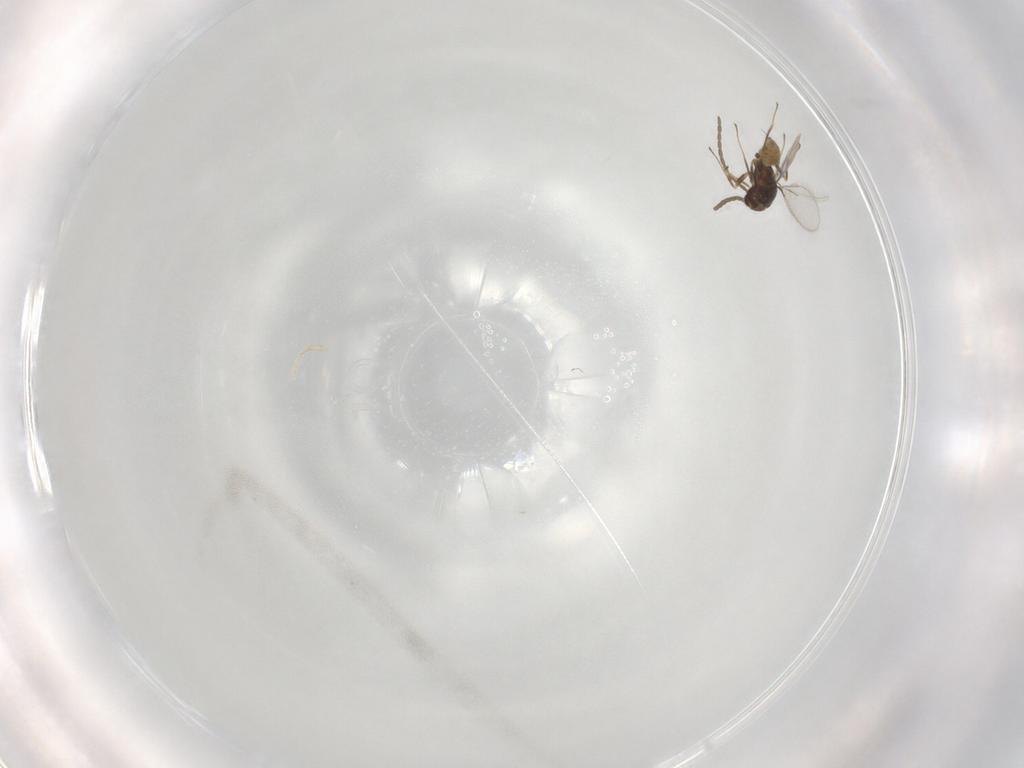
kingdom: Animalia
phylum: Arthropoda
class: Insecta
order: Hymenoptera
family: Mymaridae
